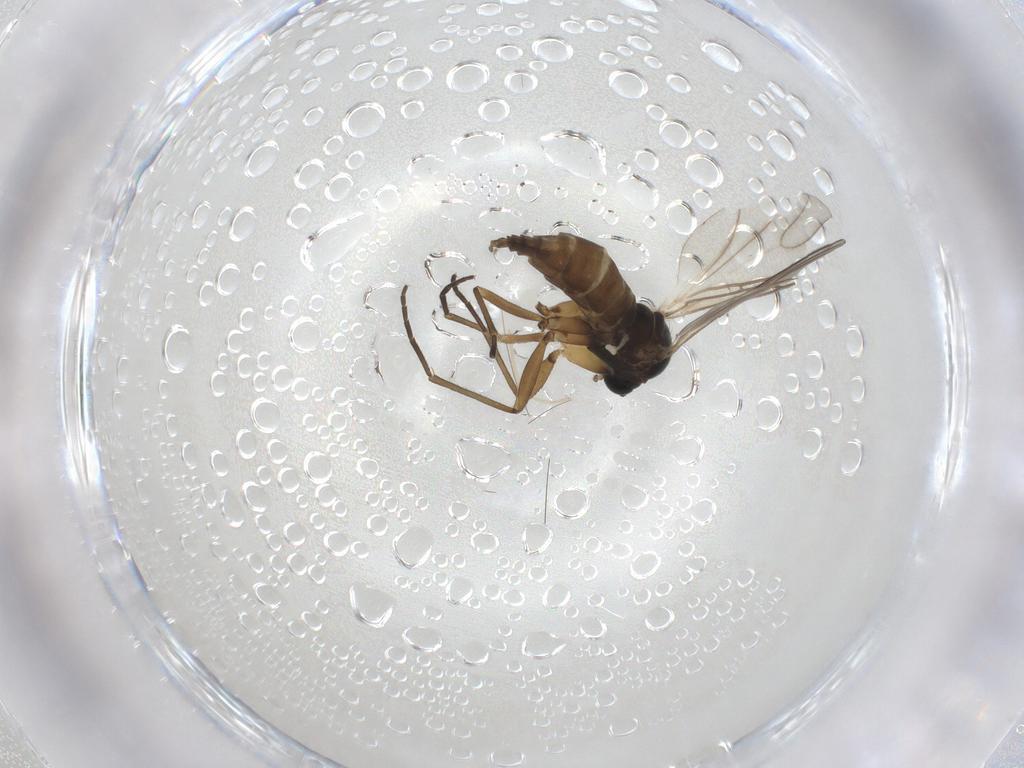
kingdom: Animalia
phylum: Arthropoda
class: Insecta
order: Diptera
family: Sciaridae
